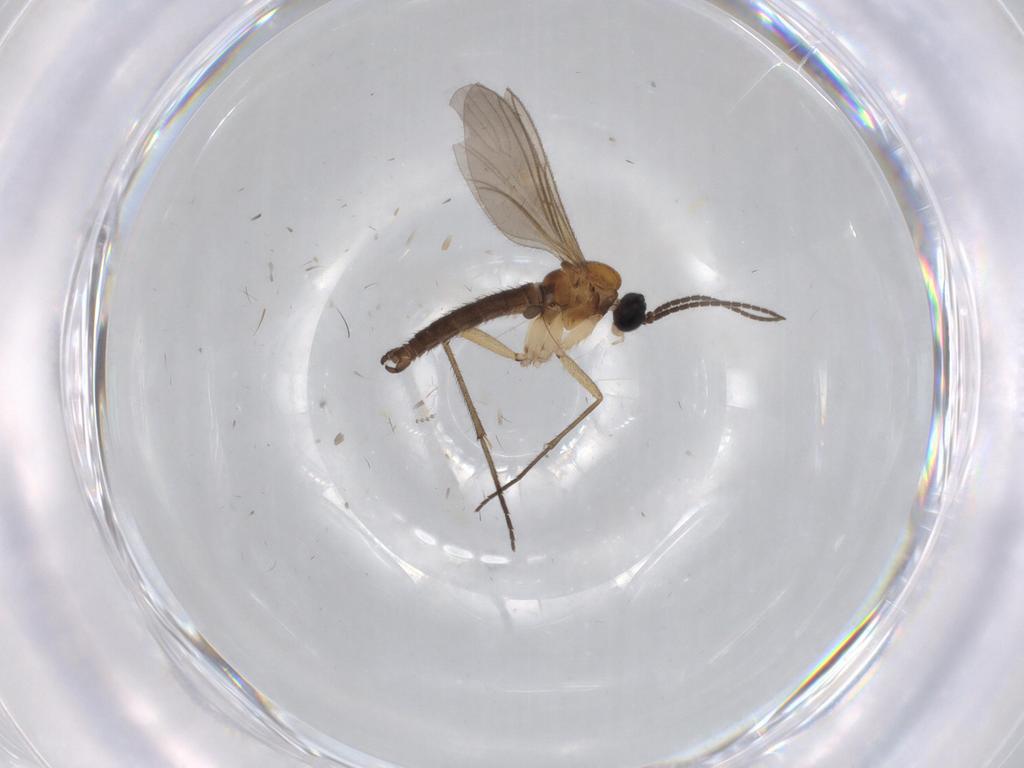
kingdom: Animalia
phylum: Arthropoda
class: Insecta
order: Diptera
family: Cecidomyiidae
